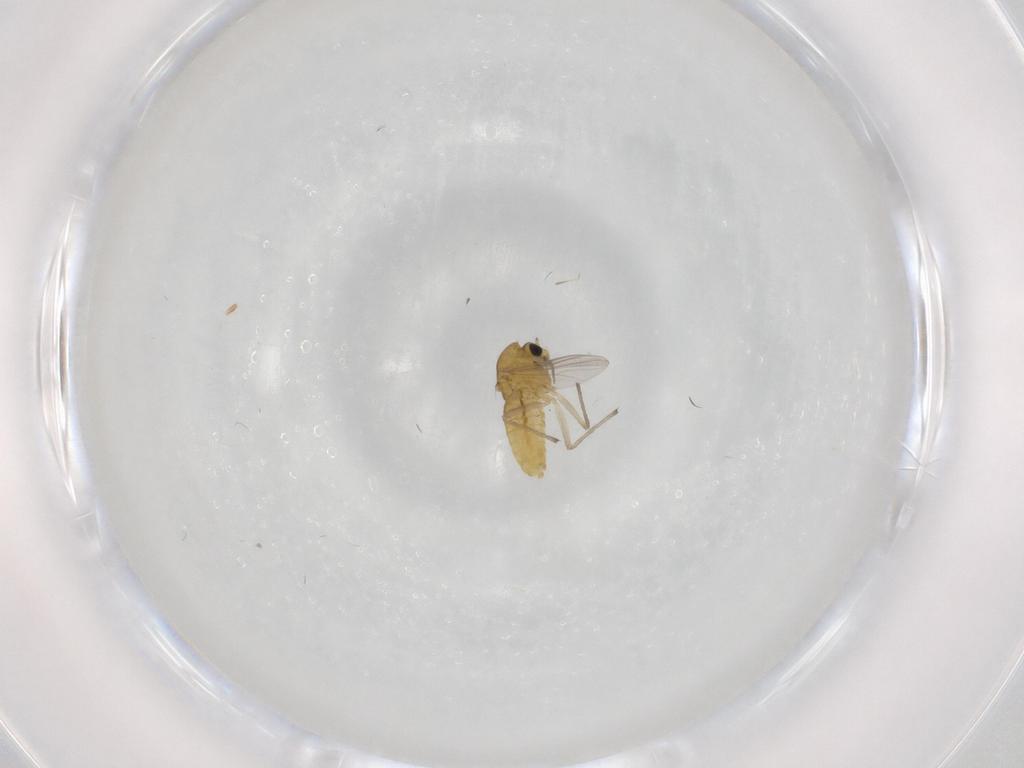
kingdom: Animalia
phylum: Arthropoda
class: Insecta
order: Diptera
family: Chironomidae
